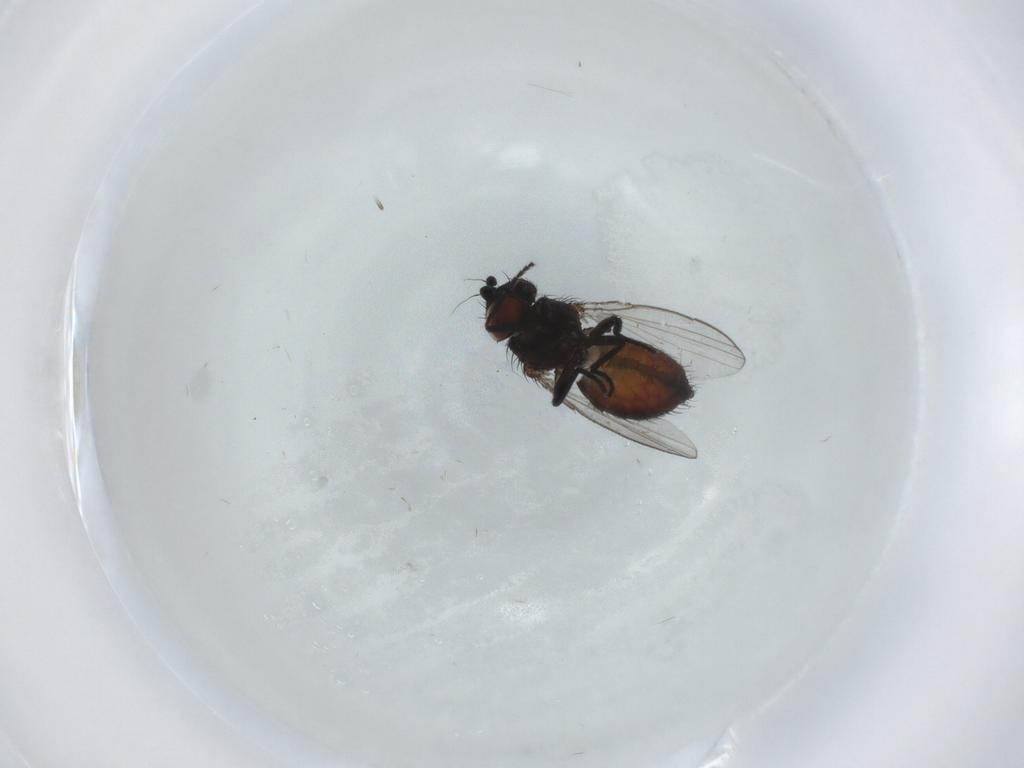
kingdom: Animalia
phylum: Arthropoda
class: Insecta
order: Diptera
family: Milichiidae
